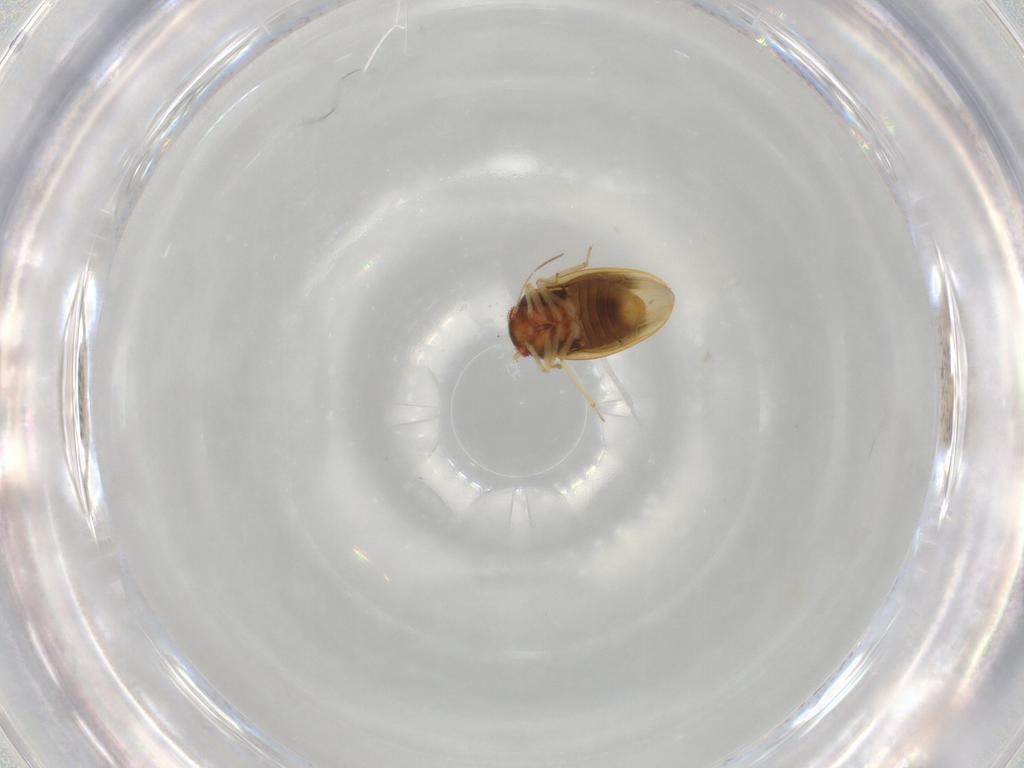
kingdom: Animalia
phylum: Arthropoda
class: Insecta
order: Hemiptera
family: Schizopteridae
